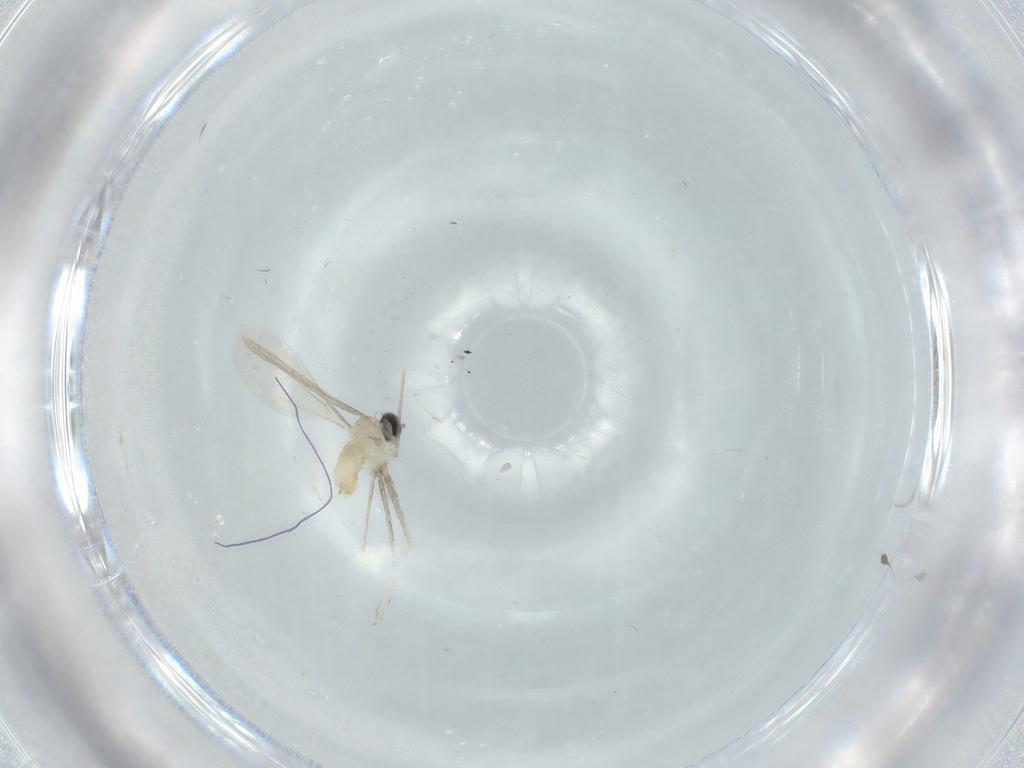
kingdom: Animalia
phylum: Arthropoda
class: Insecta
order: Diptera
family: Cecidomyiidae
